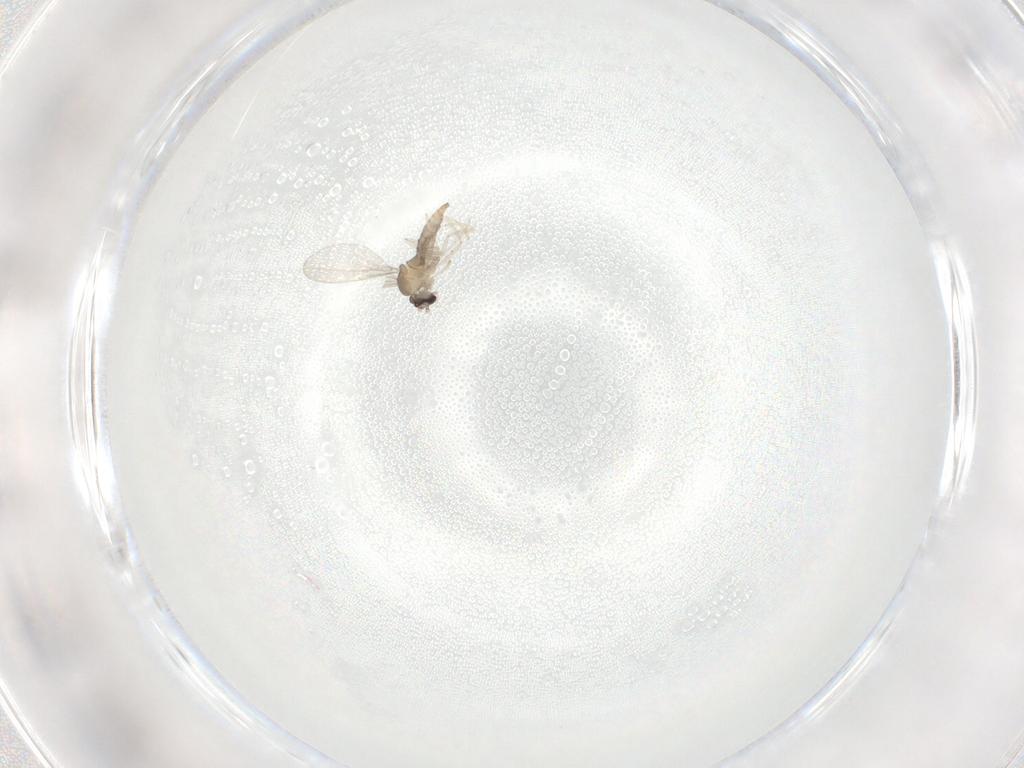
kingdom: Animalia
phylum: Arthropoda
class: Insecta
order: Diptera
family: Cecidomyiidae
